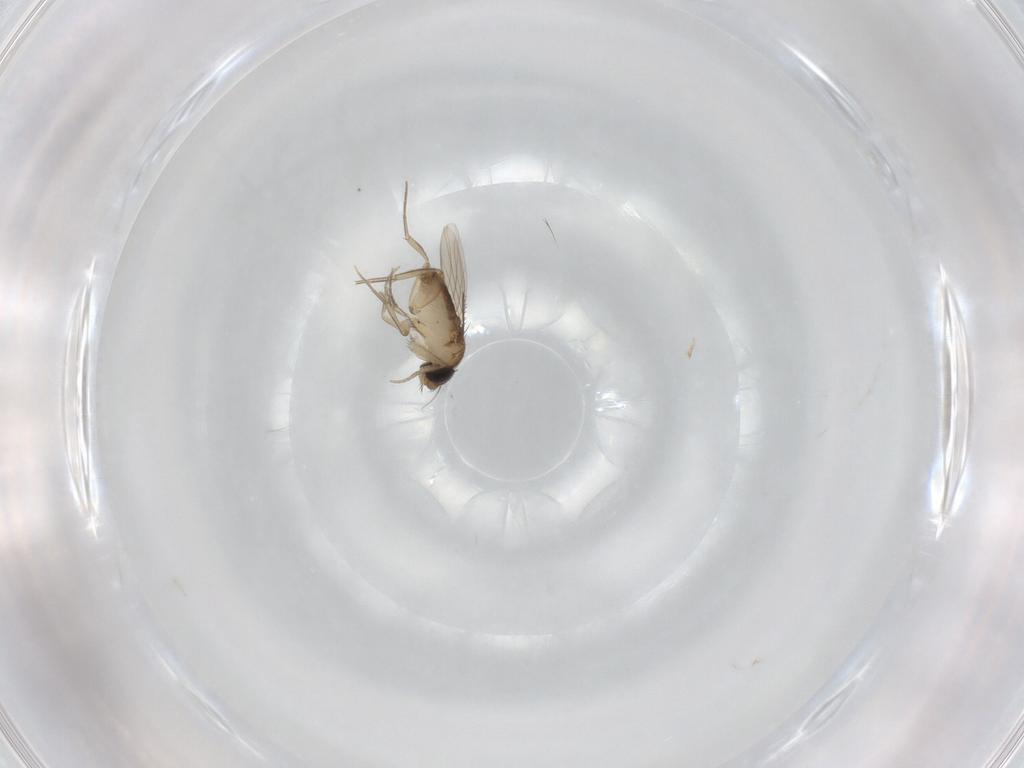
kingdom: Animalia
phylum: Arthropoda
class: Insecta
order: Diptera
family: Phoridae
